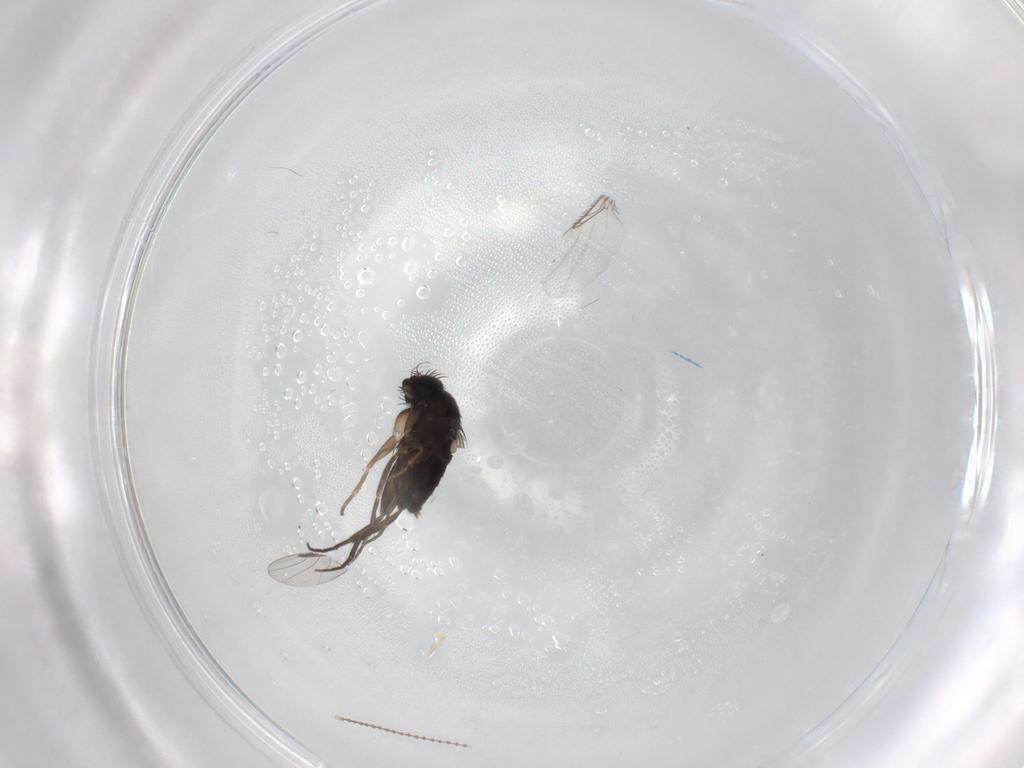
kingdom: Animalia
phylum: Arthropoda
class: Insecta
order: Diptera
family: Phoridae
